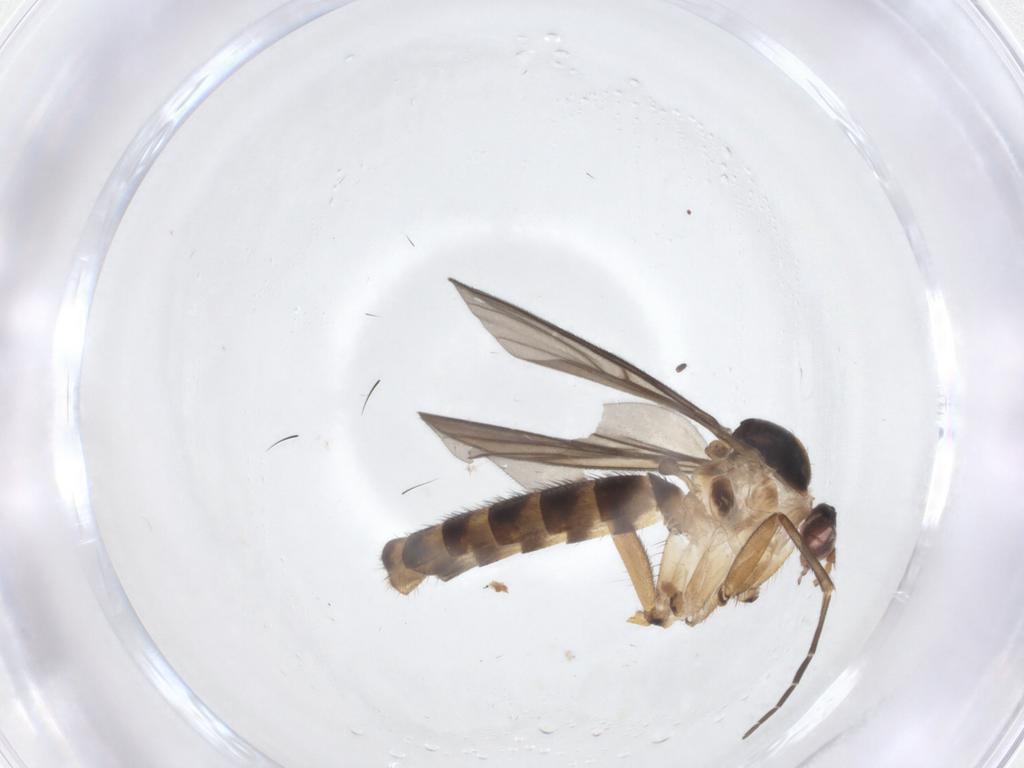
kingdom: Animalia
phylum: Arthropoda
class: Insecta
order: Diptera
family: Mycetophilidae
